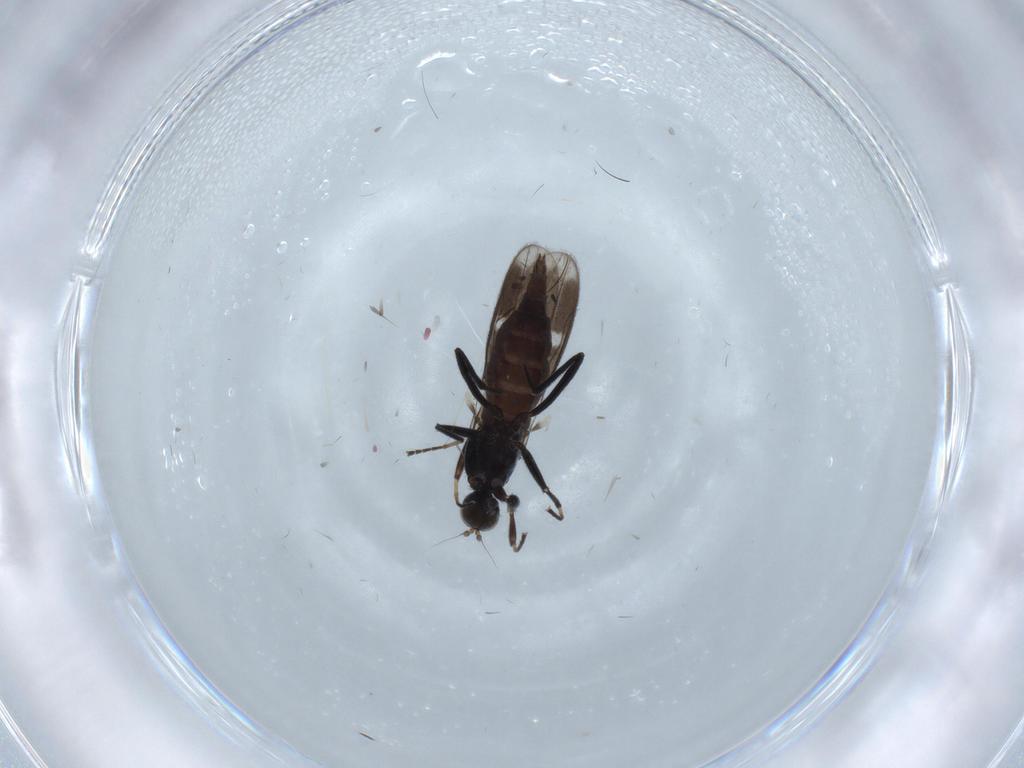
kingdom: Animalia
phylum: Arthropoda
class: Insecta
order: Diptera
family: Hybotidae
